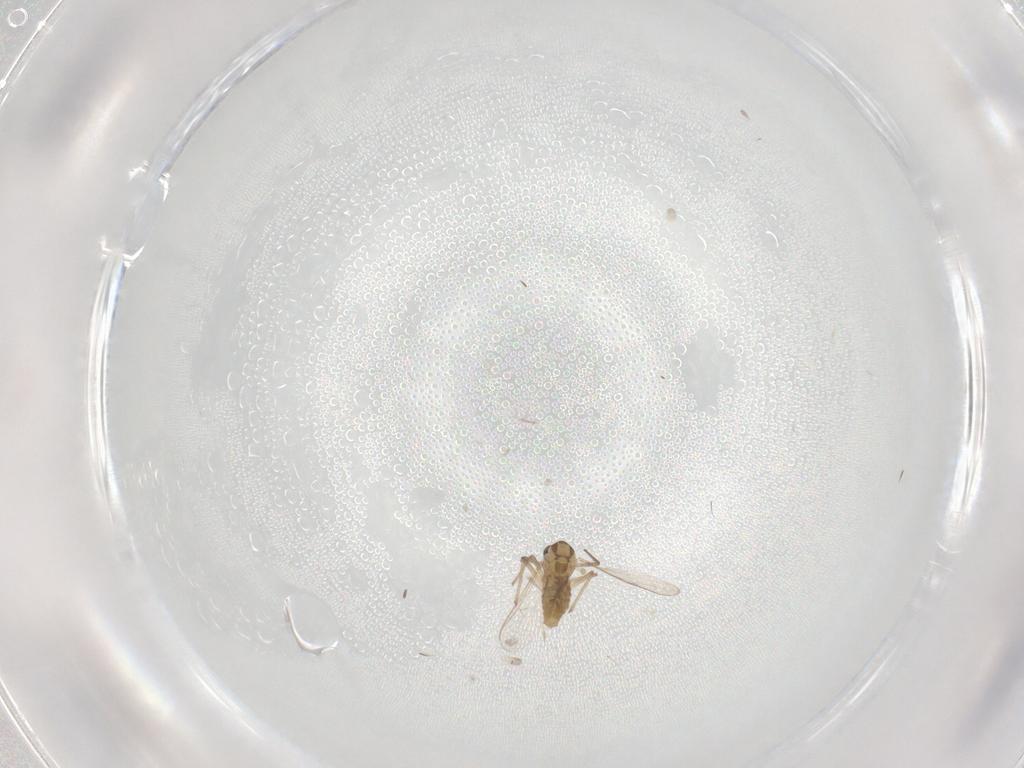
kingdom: Animalia
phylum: Arthropoda
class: Insecta
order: Diptera
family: Chironomidae
